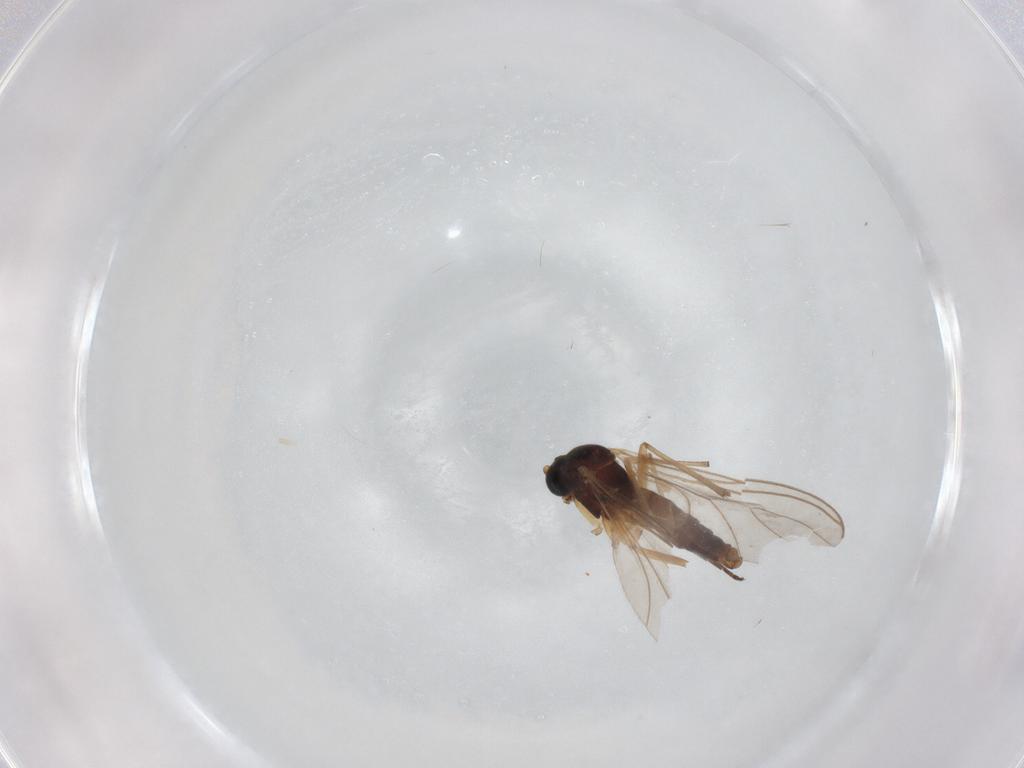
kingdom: Animalia
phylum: Arthropoda
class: Insecta
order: Diptera
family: Sciaridae
